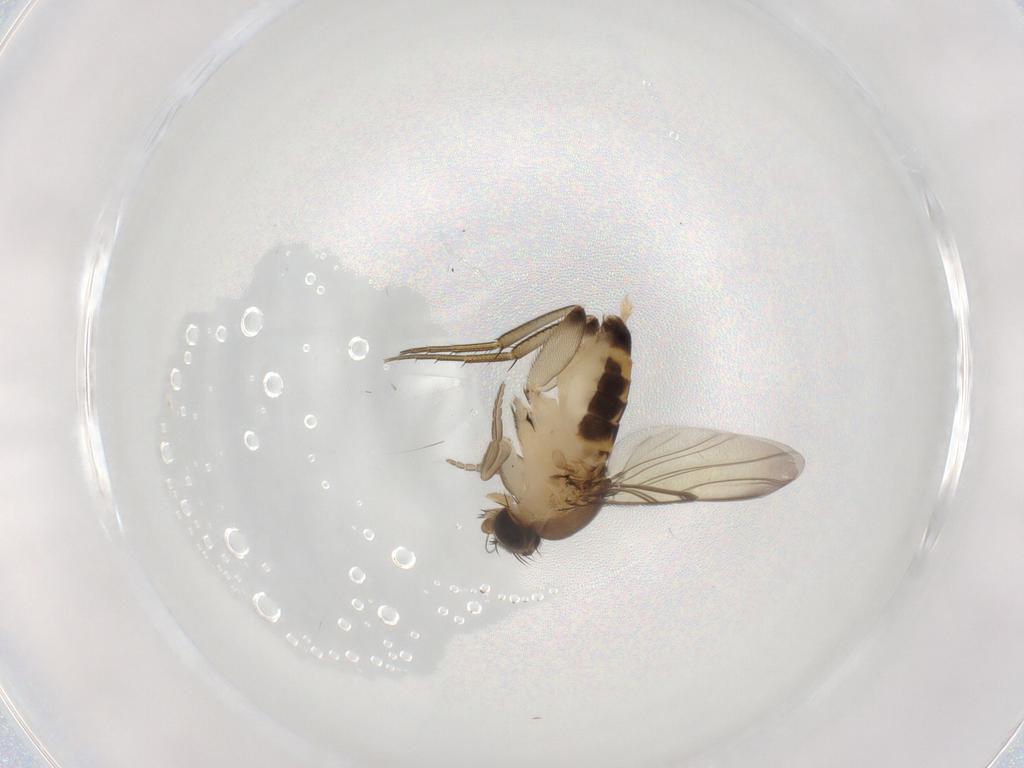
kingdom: Animalia
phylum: Arthropoda
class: Insecta
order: Diptera
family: Phoridae
